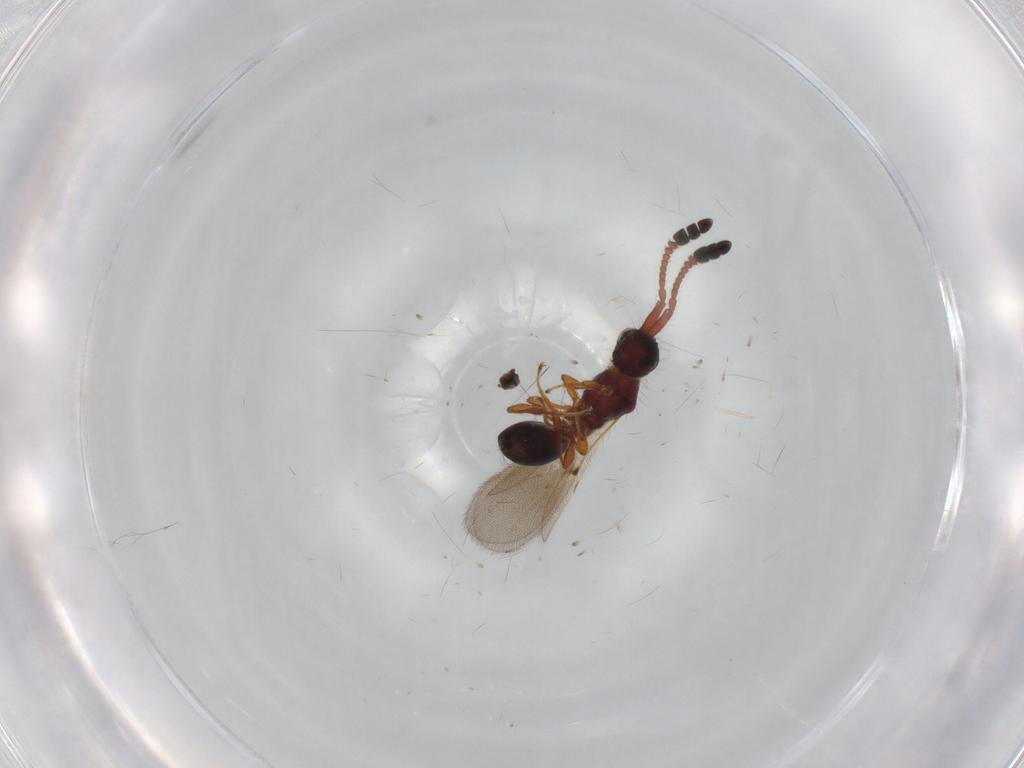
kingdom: Animalia
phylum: Arthropoda
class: Insecta
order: Hymenoptera
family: Diapriidae
